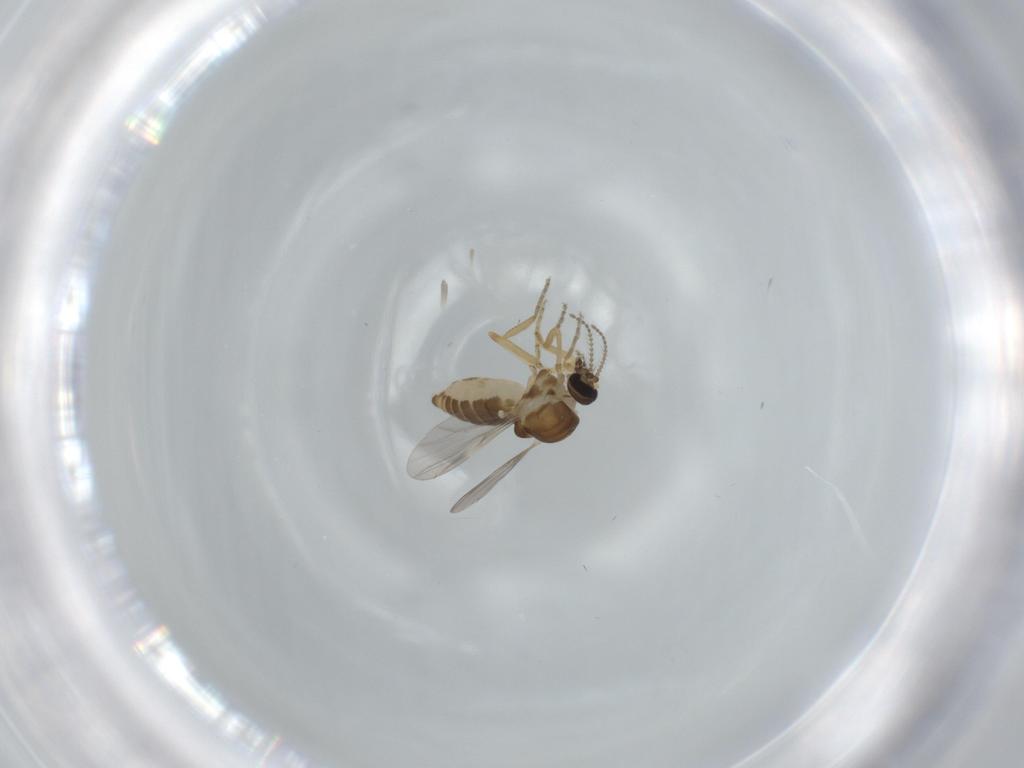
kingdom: Animalia
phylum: Arthropoda
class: Insecta
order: Diptera
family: Ceratopogonidae
